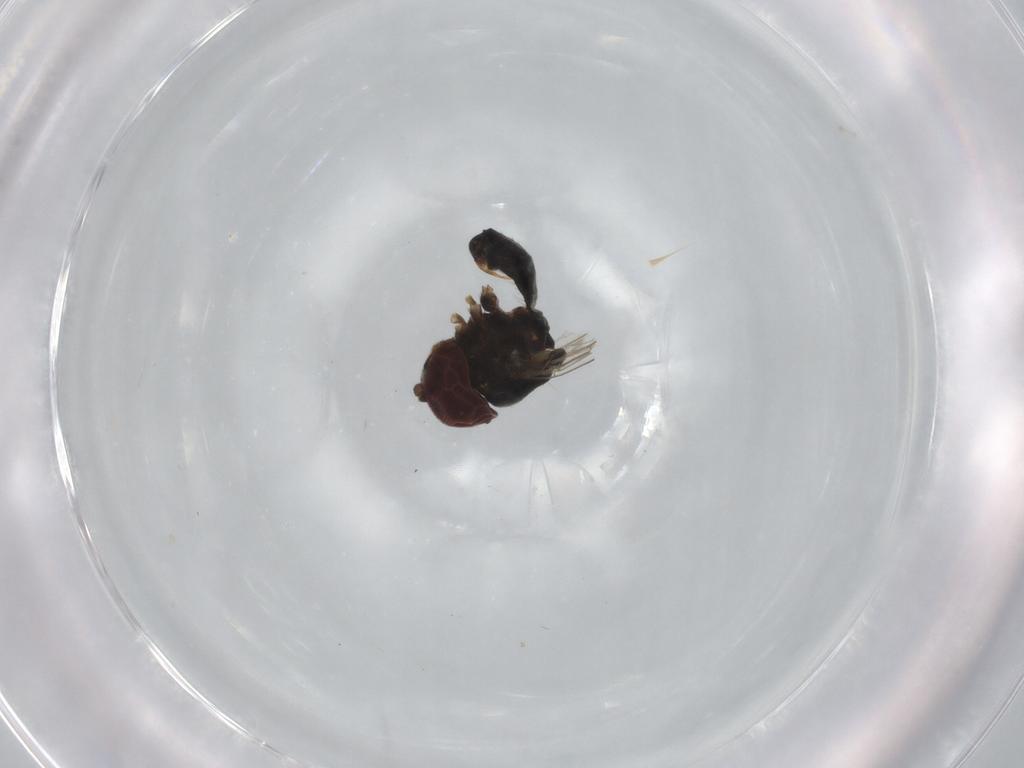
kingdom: Animalia
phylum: Arthropoda
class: Insecta
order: Diptera
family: Pipunculidae
